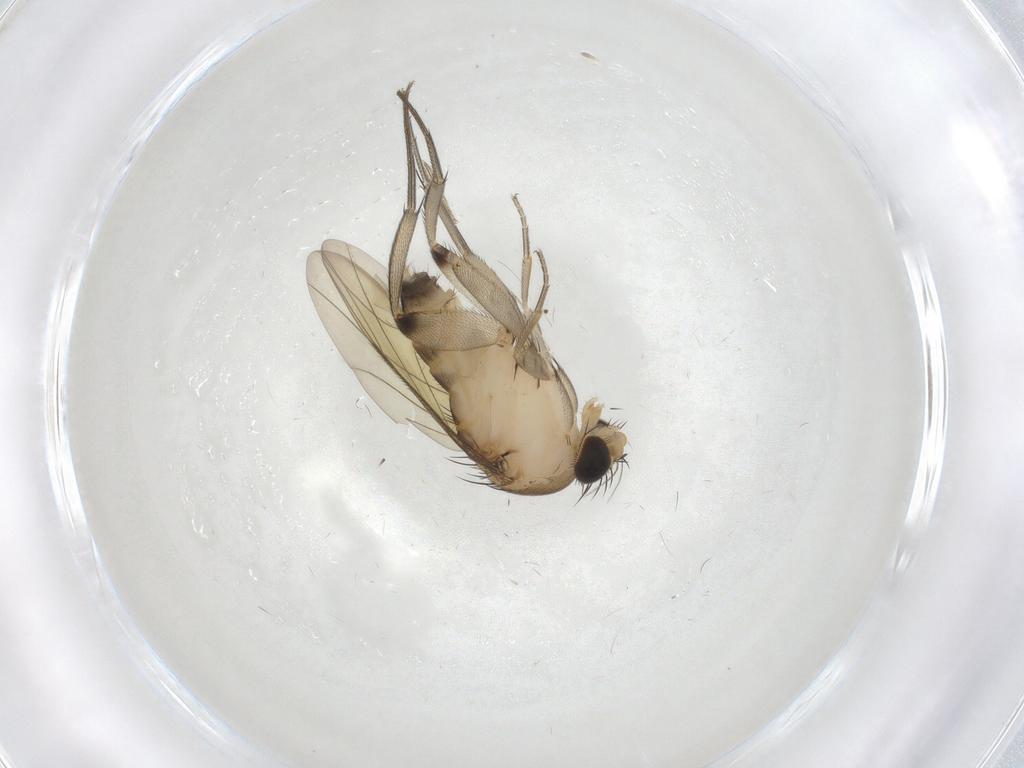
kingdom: Animalia
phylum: Arthropoda
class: Insecta
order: Diptera
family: Phoridae
